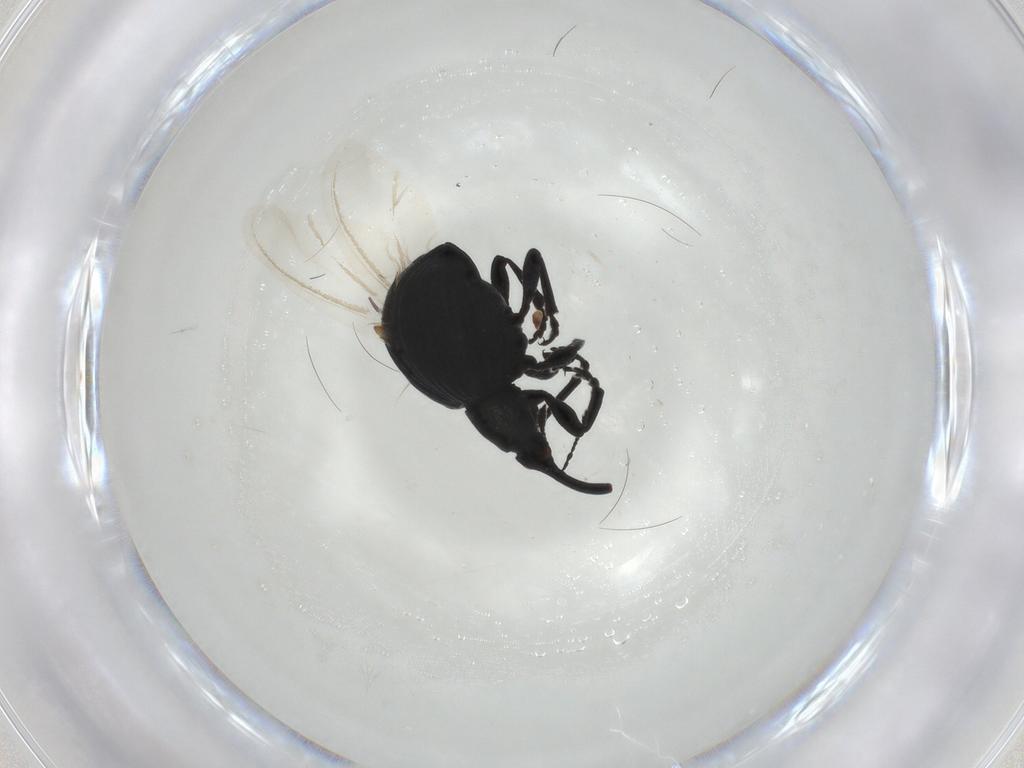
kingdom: Animalia
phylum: Arthropoda
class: Insecta
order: Coleoptera
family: Brentidae
